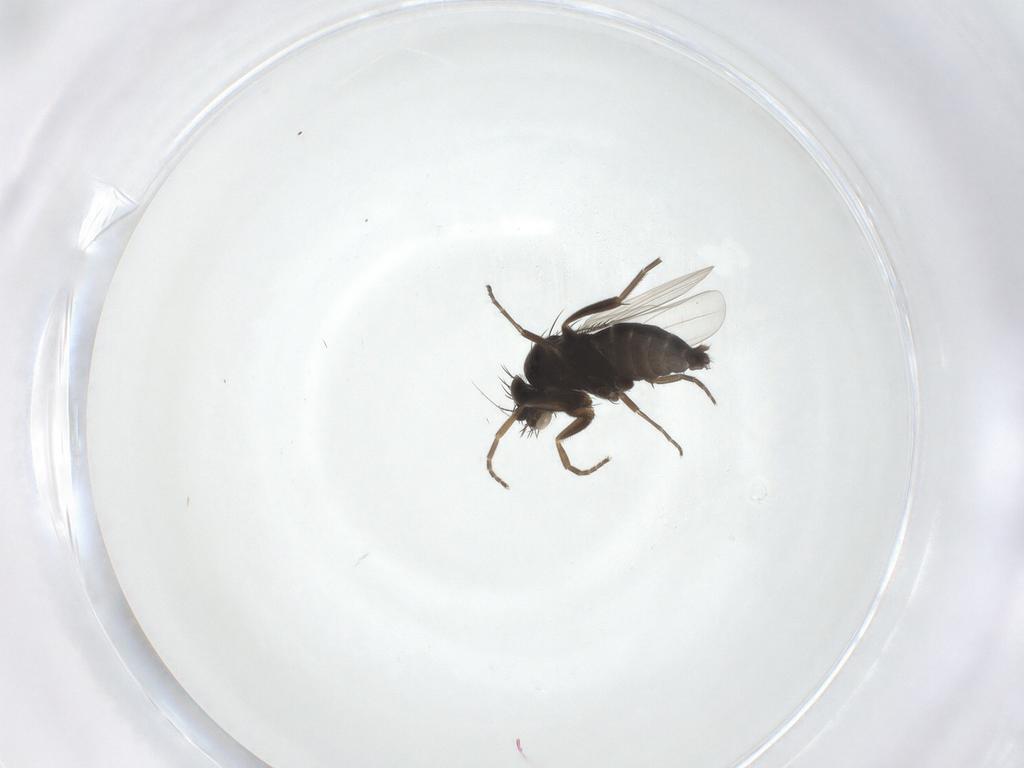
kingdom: Animalia
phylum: Arthropoda
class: Insecta
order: Diptera
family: Phoridae
